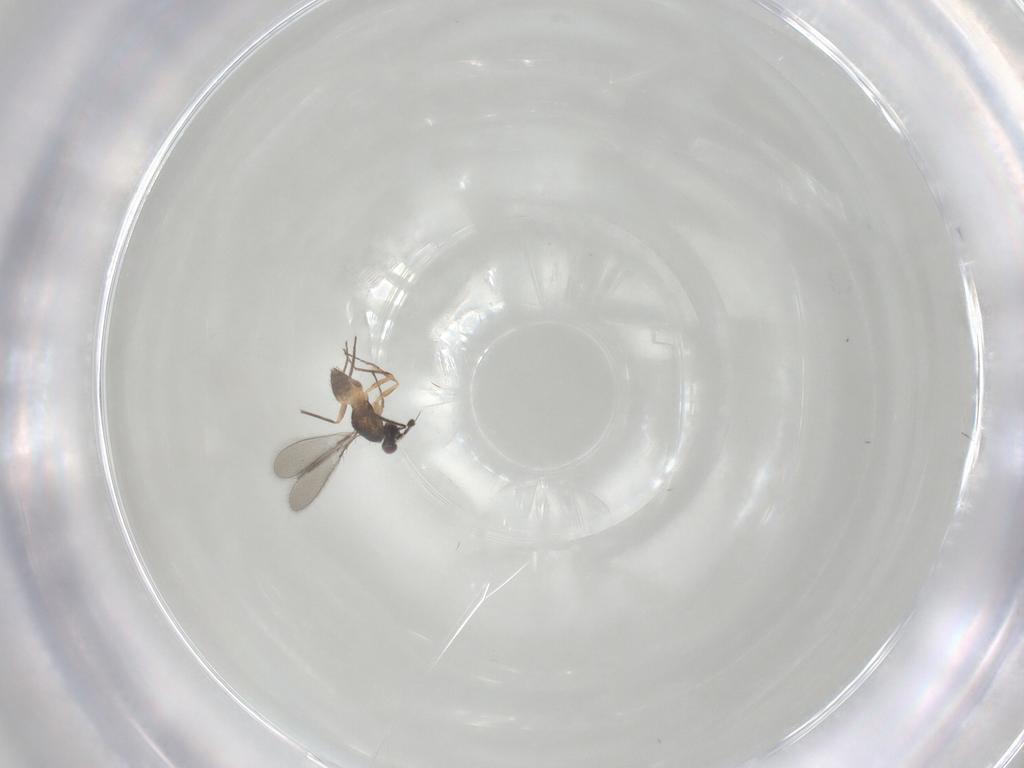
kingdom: Animalia
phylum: Arthropoda
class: Insecta
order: Hymenoptera
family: Mymaridae
